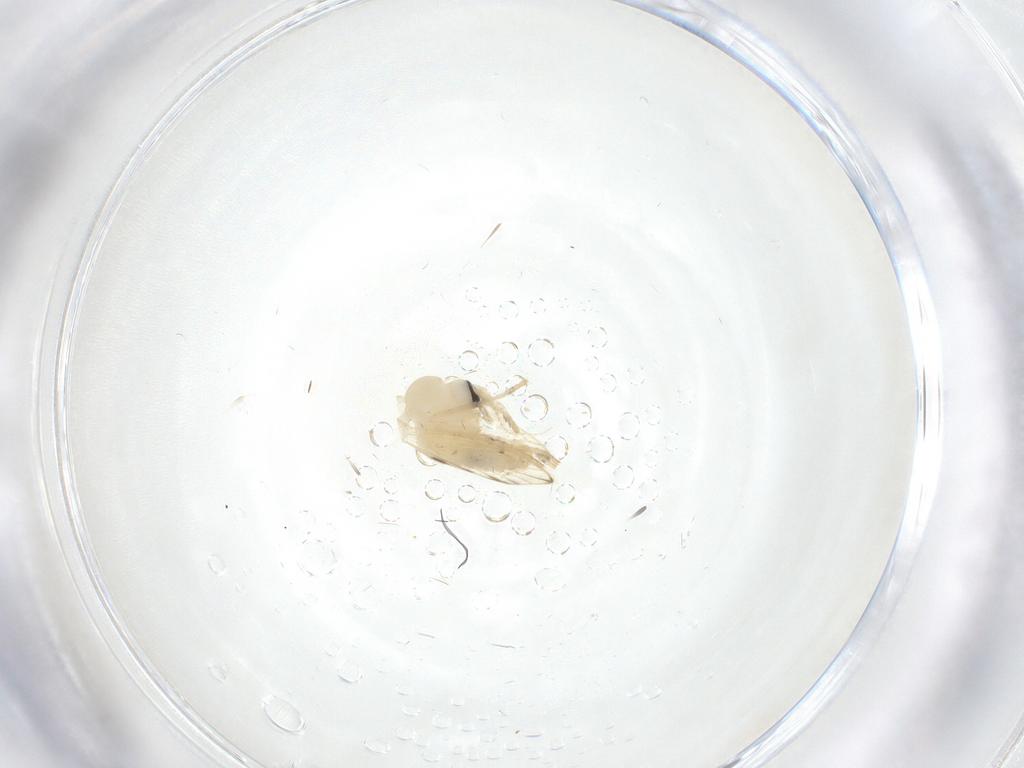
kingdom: Animalia
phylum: Arthropoda
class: Insecta
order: Diptera
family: Psychodidae
